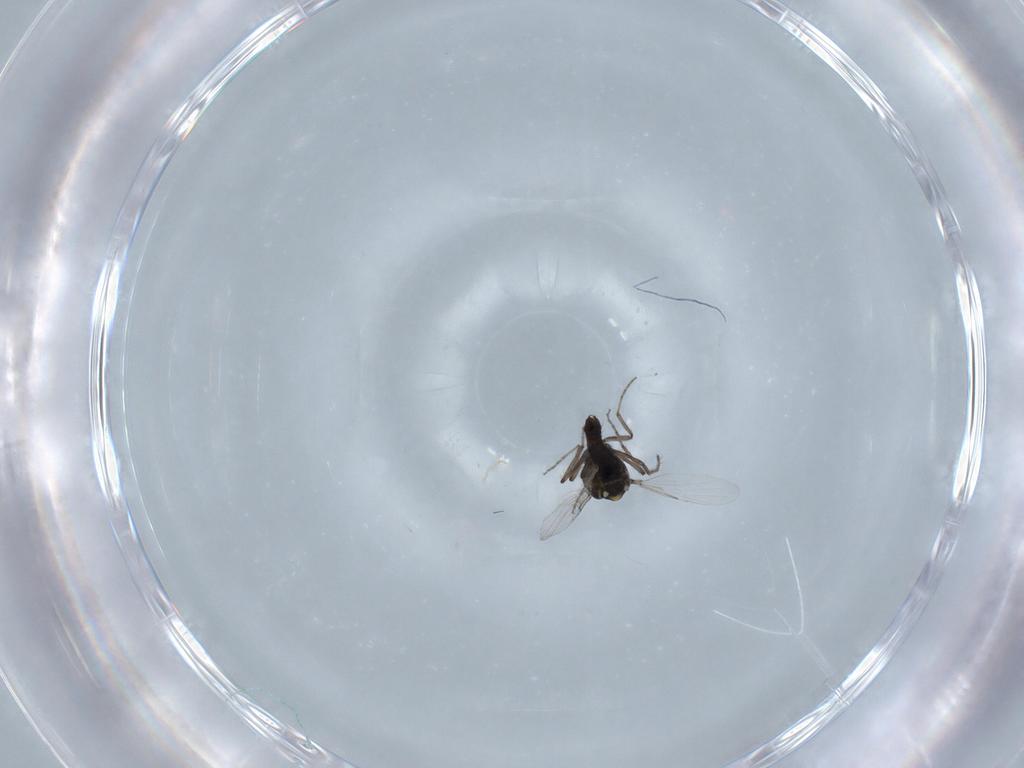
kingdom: Animalia
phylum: Arthropoda
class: Insecta
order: Diptera
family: Ceratopogonidae
